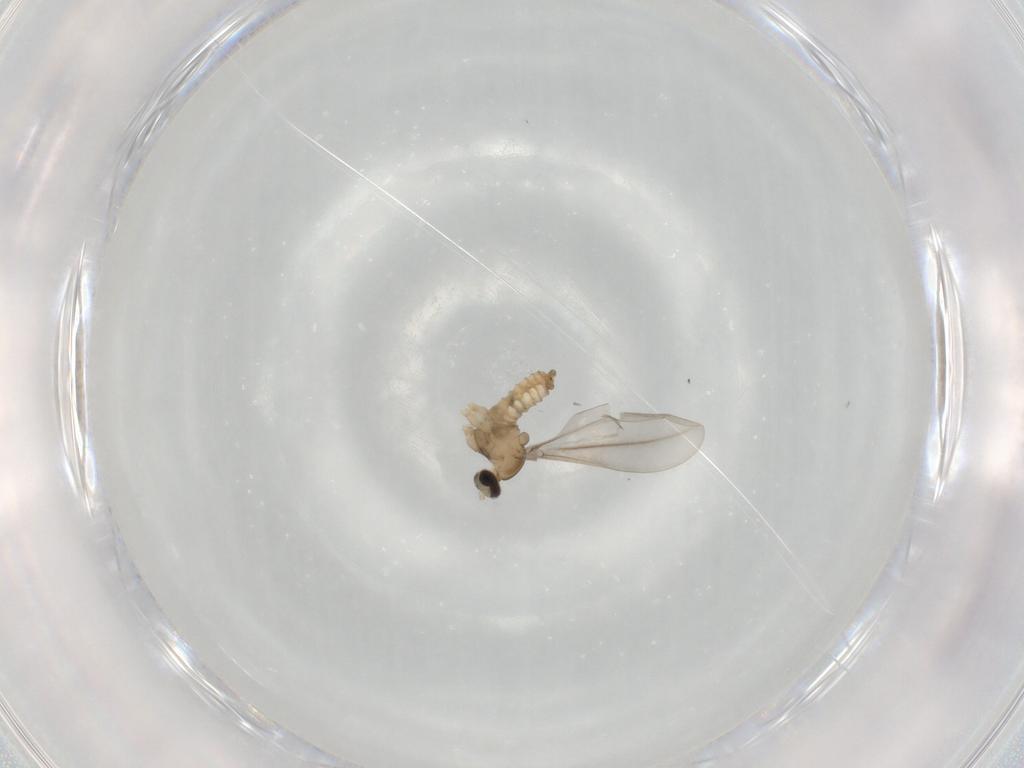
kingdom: Animalia
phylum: Arthropoda
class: Insecta
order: Diptera
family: Cecidomyiidae
